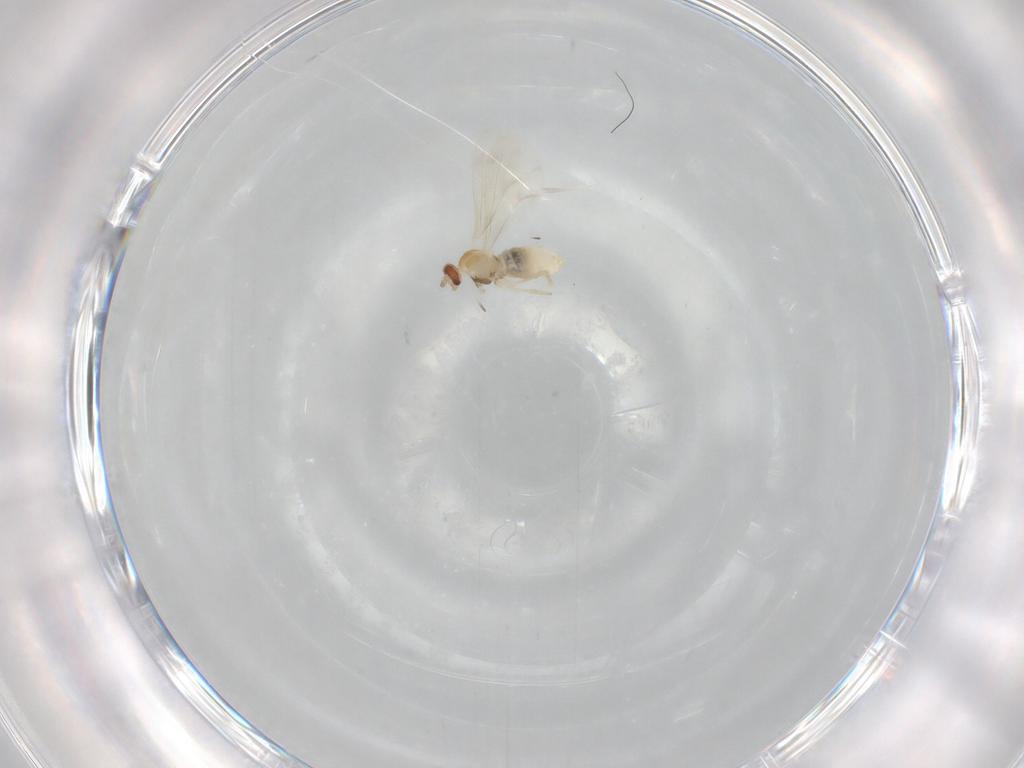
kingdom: Animalia
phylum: Arthropoda
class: Insecta
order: Diptera
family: Cecidomyiidae
